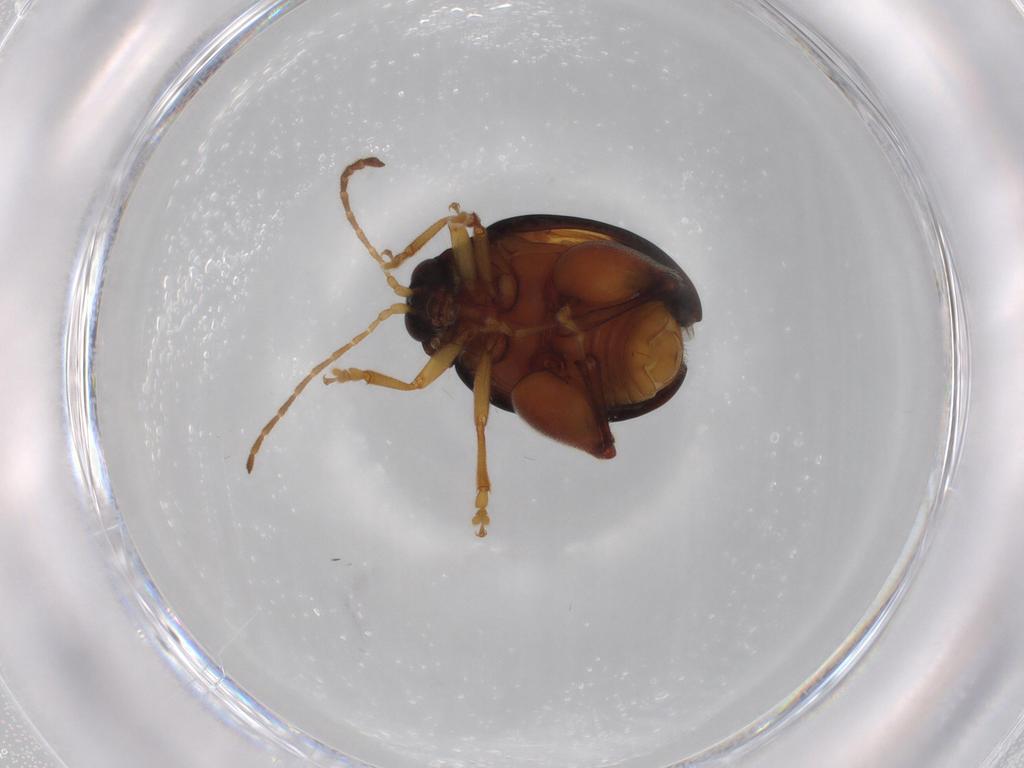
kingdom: Animalia
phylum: Arthropoda
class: Insecta
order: Coleoptera
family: Chrysomelidae
